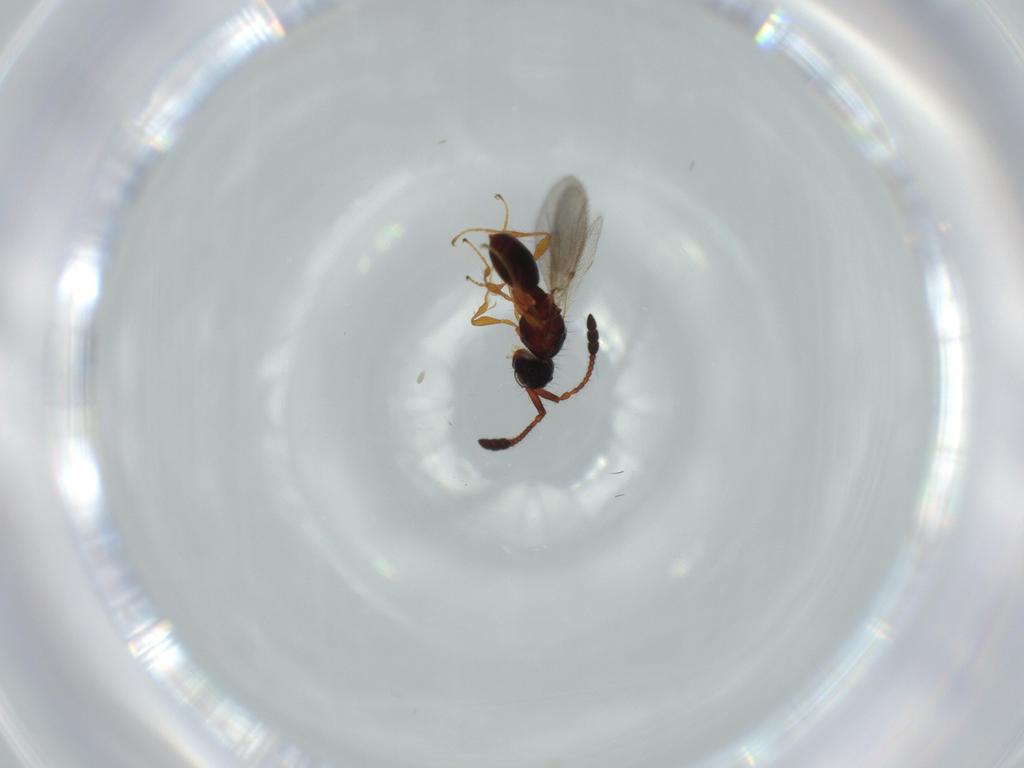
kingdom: Animalia
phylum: Arthropoda
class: Insecta
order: Hymenoptera
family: Diapriidae
